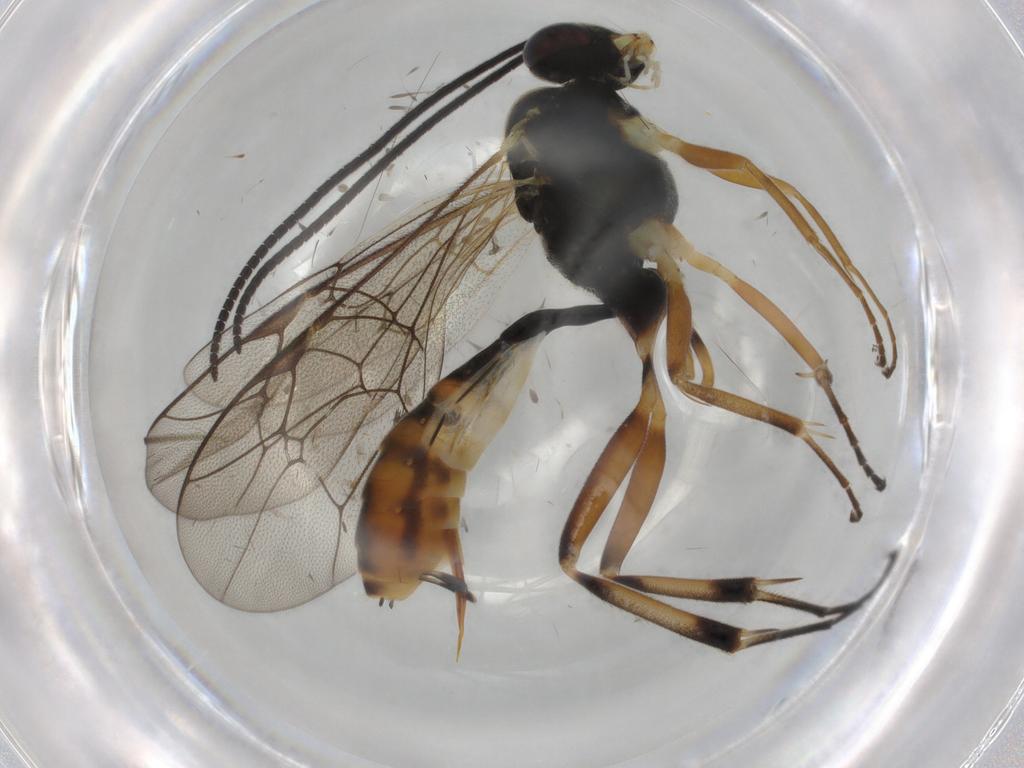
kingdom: Animalia
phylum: Arthropoda
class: Insecta
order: Hymenoptera
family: Ichneumonidae
